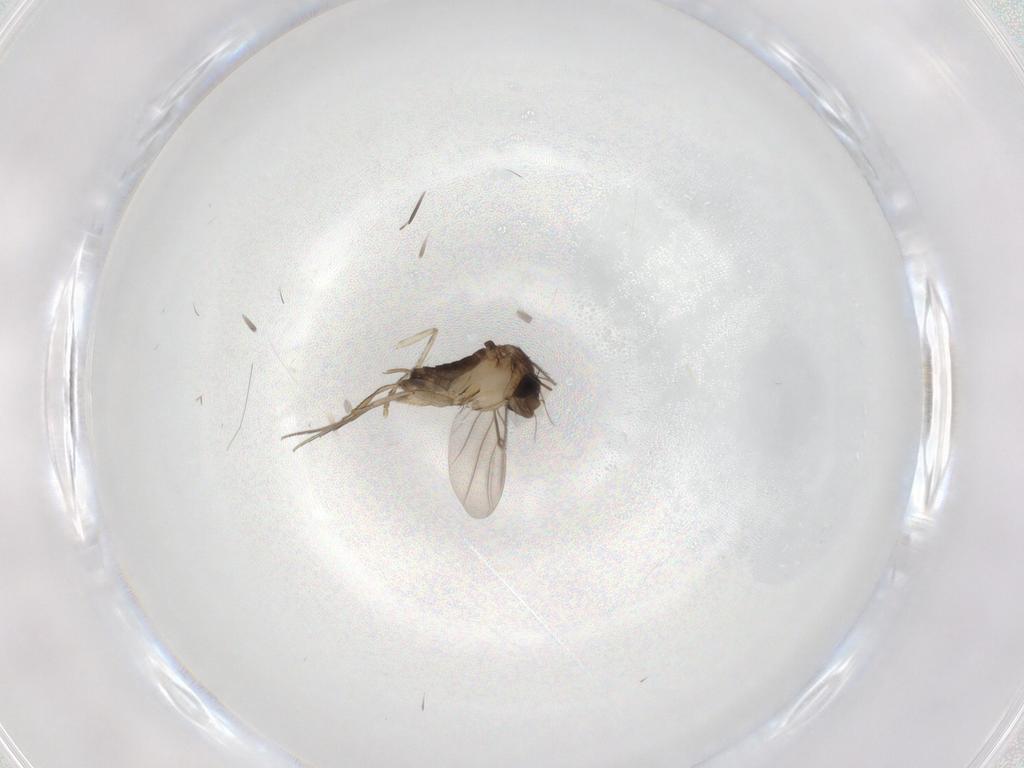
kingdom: Animalia
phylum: Arthropoda
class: Insecta
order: Diptera
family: Phoridae
